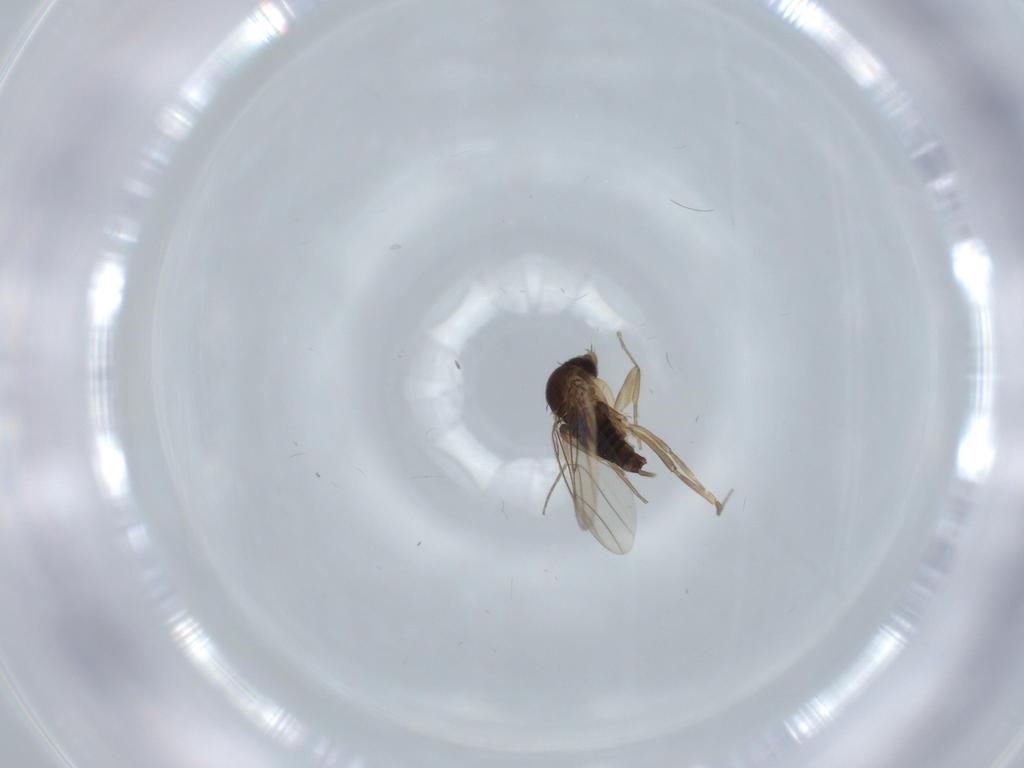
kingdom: Animalia
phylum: Arthropoda
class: Insecta
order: Diptera
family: Phoridae
